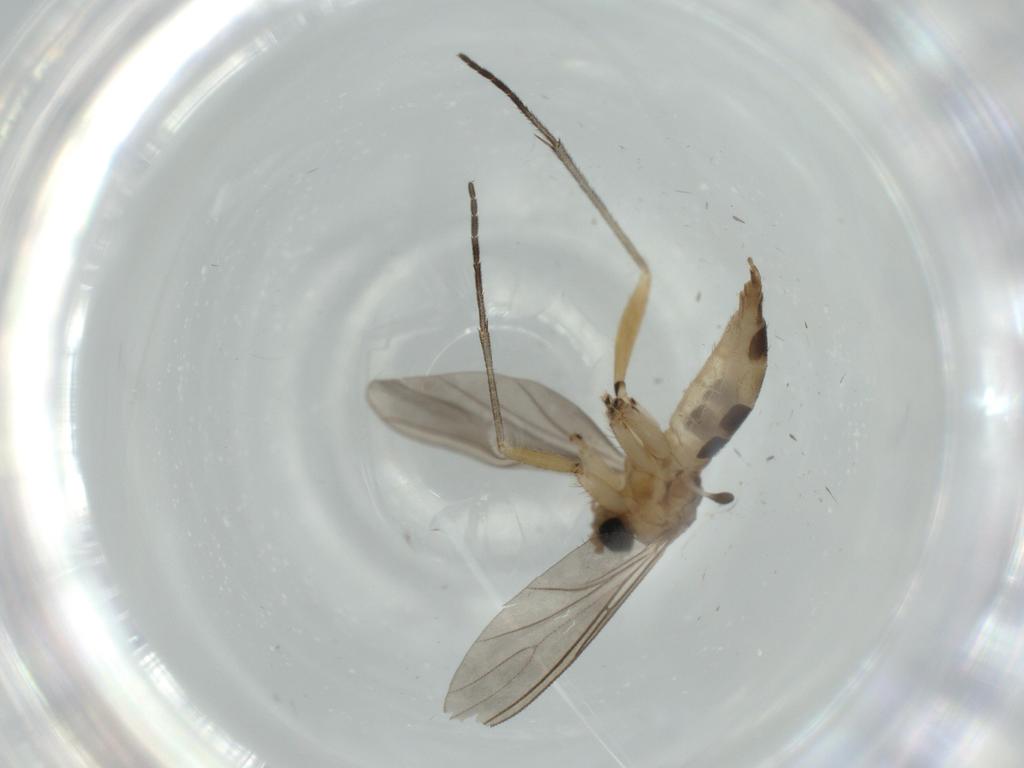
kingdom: Animalia
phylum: Arthropoda
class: Insecta
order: Diptera
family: Sciaridae
